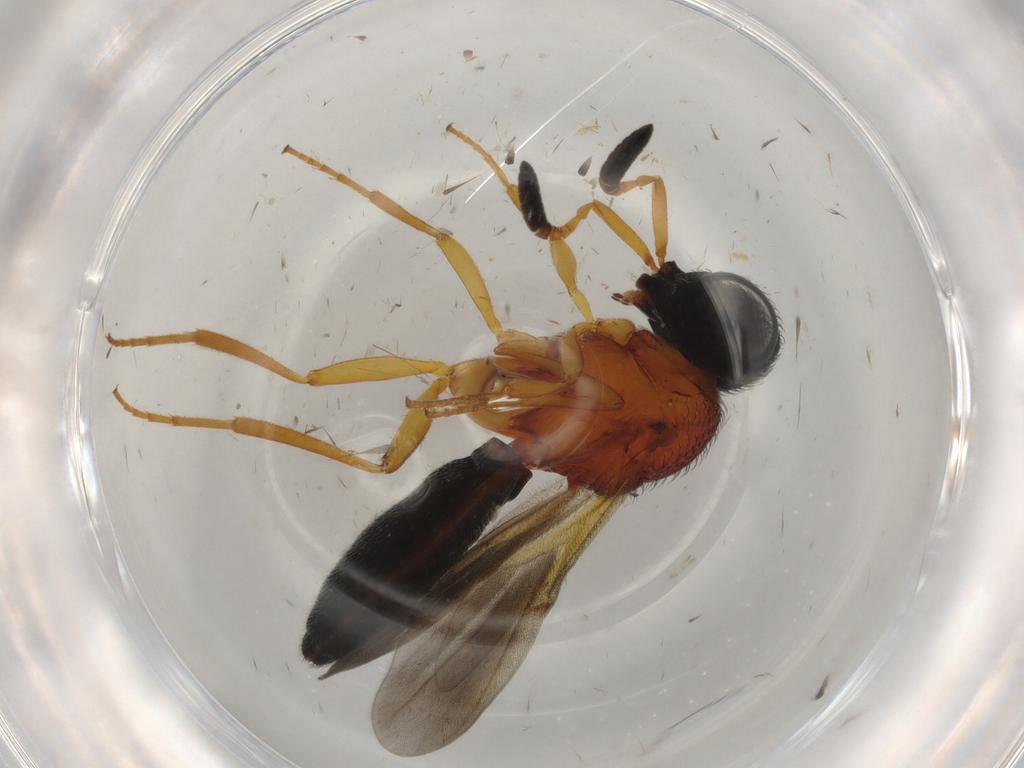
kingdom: Animalia
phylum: Arthropoda
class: Insecta
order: Hymenoptera
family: Scelionidae
